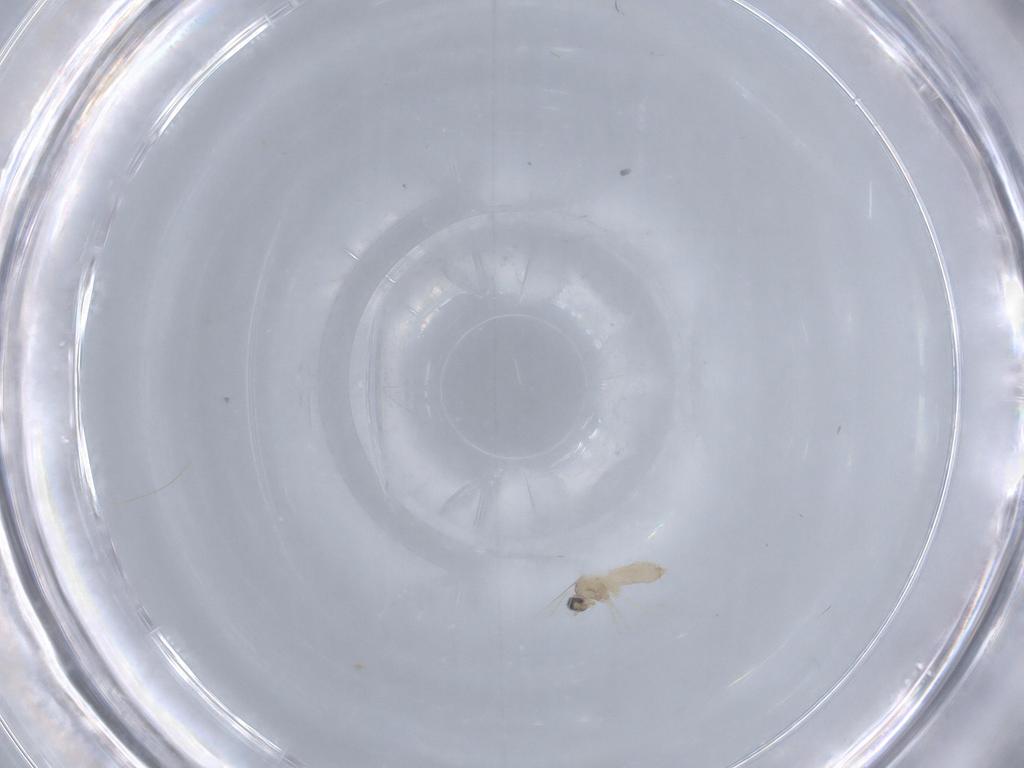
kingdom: Animalia
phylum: Arthropoda
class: Insecta
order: Diptera
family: Cecidomyiidae
